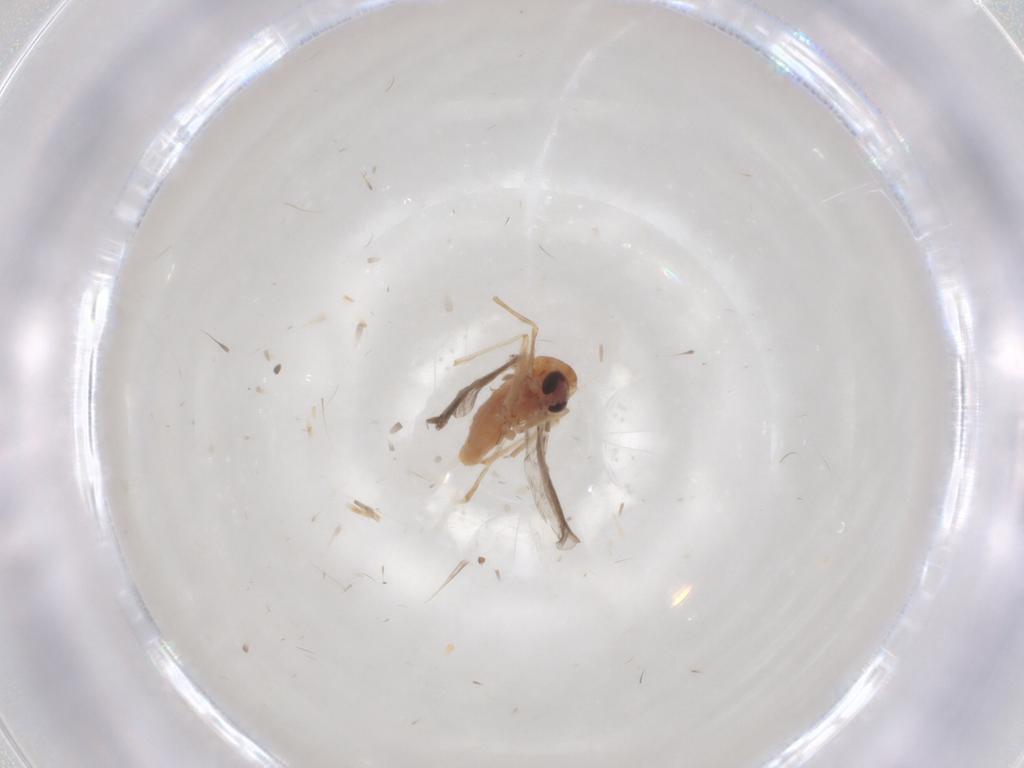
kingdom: Animalia
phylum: Arthropoda
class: Insecta
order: Diptera
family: Chironomidae
